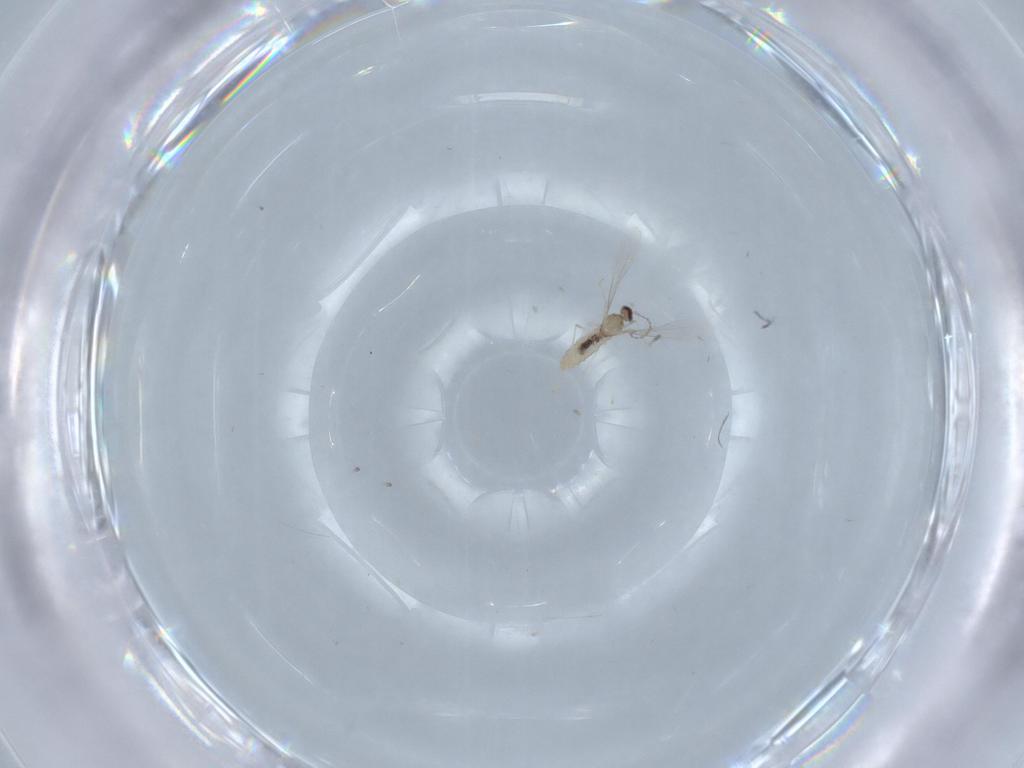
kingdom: Animalia
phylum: Arthropoda
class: Insecta
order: Diptera
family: Cecidomyiidae
